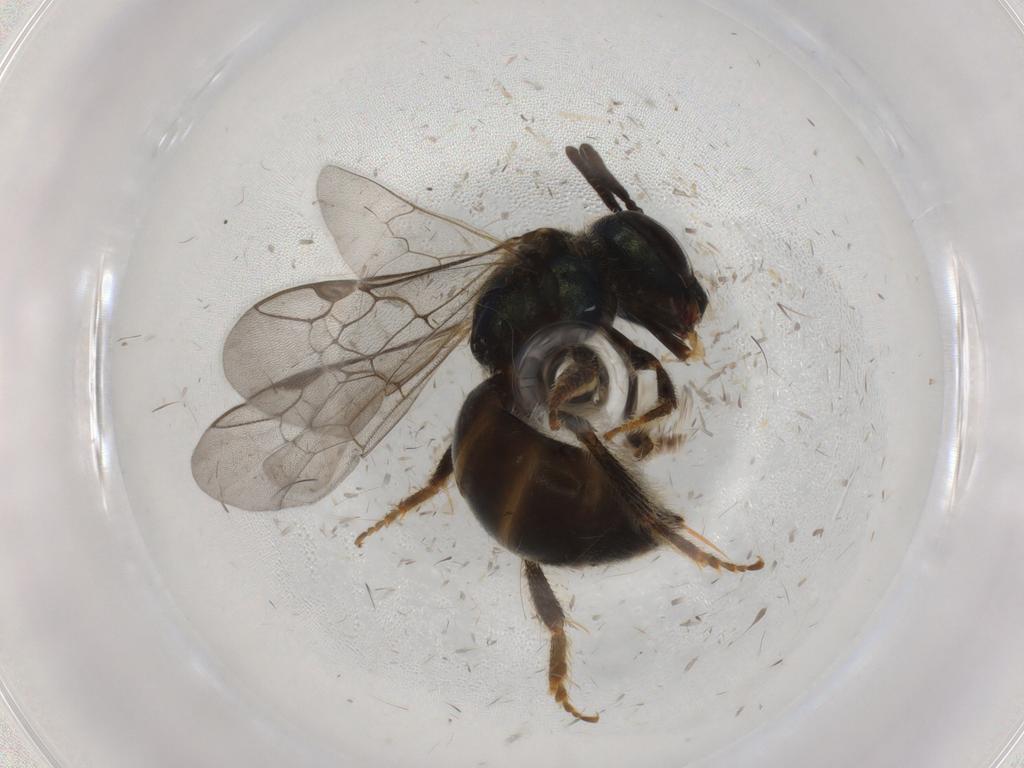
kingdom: Animalia
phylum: Arthropoda
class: Insecta
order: Hymenoptera
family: Halictidae
